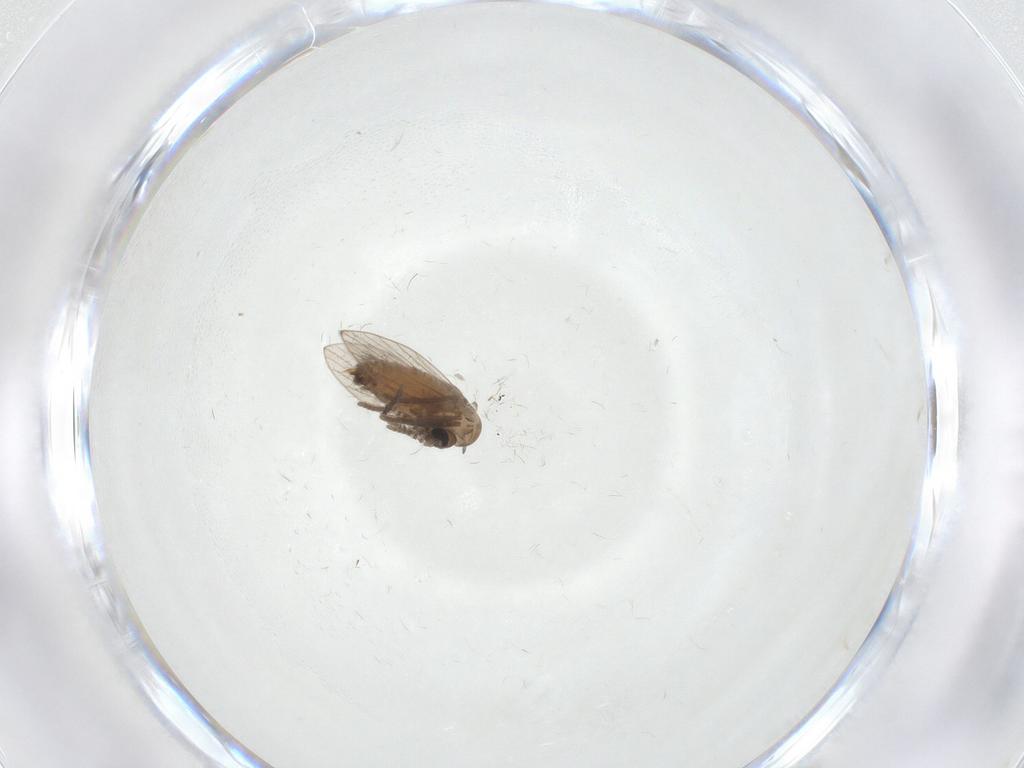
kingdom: Animalia
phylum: Arthropoda
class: Insecta
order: Diptera
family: Psychodidae
